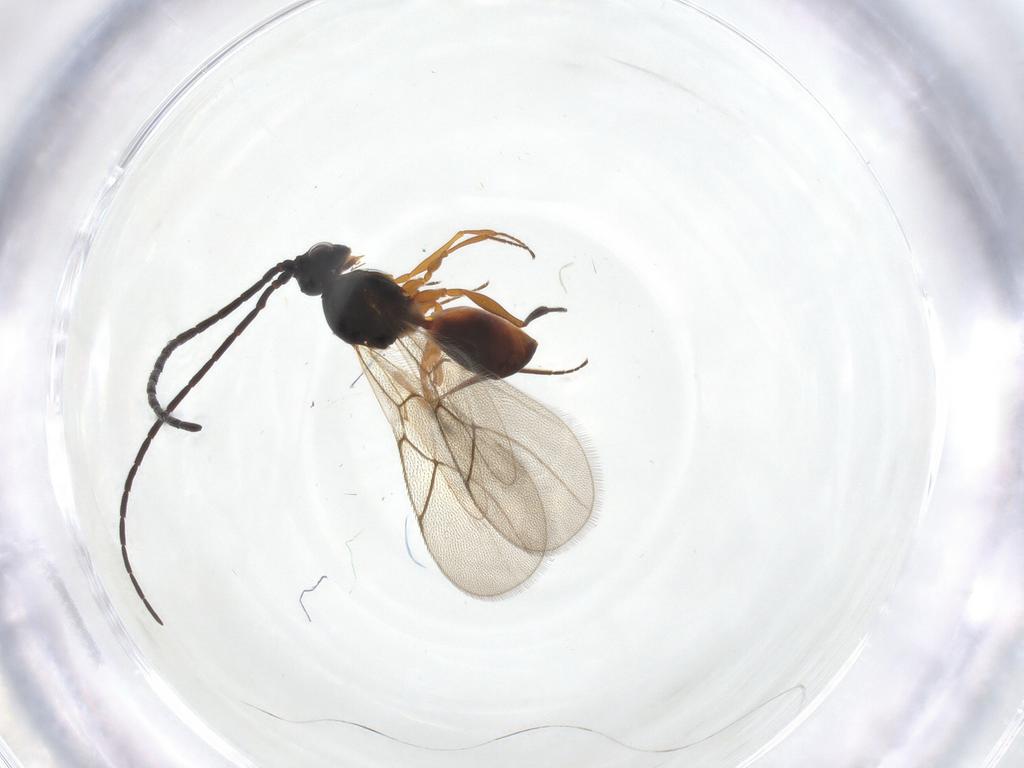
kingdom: Animalia
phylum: Arthropoda
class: Insecta
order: Hymenoptera
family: Figitidae
